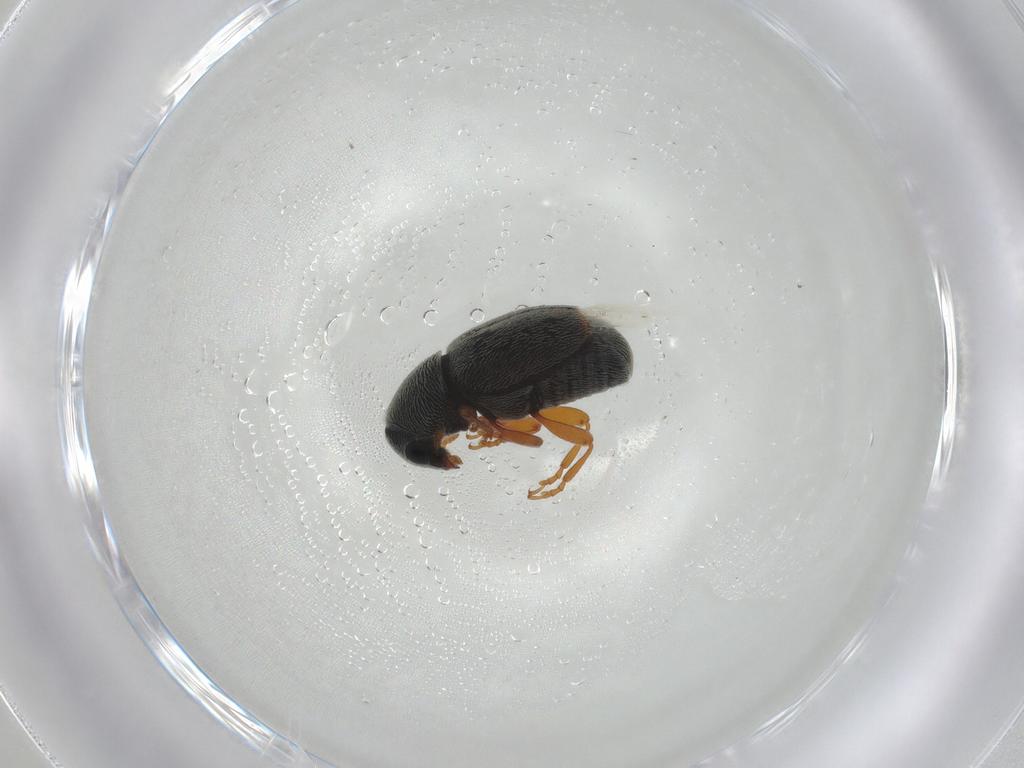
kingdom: Animalia
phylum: Arthropoda
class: Insecta
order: Coleoptera
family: Anthribidae
